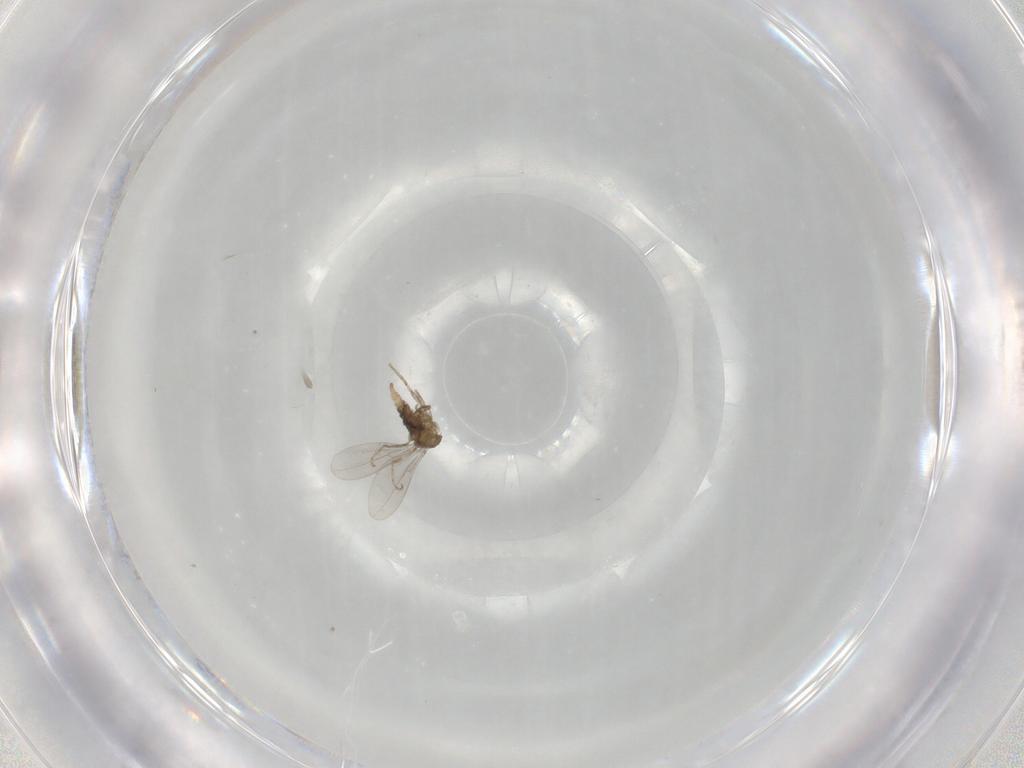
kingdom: Animalia
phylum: Arthropoda
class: Insecta
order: Diptera
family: Cecidomyiidae
